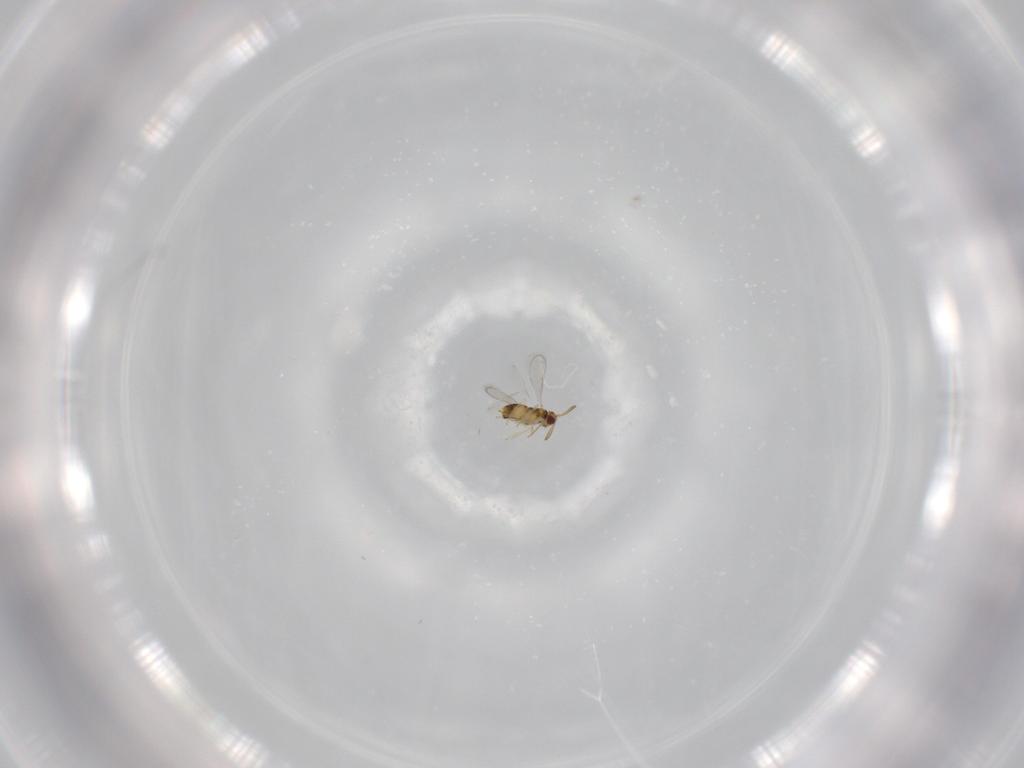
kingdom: Animalia
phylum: Arthropoda
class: Insecta
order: Hymenoptera
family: Aphelinidae
